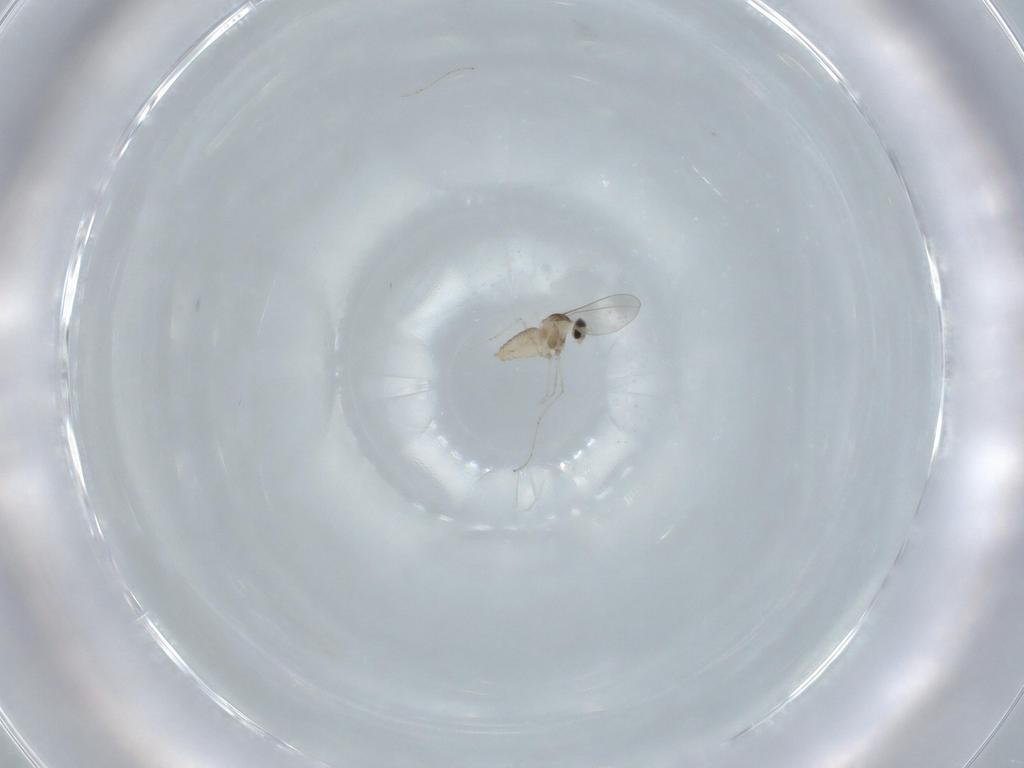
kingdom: Animalia
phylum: Arthropoda
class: Insecta
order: Diptera
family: Cecidomyiidae
